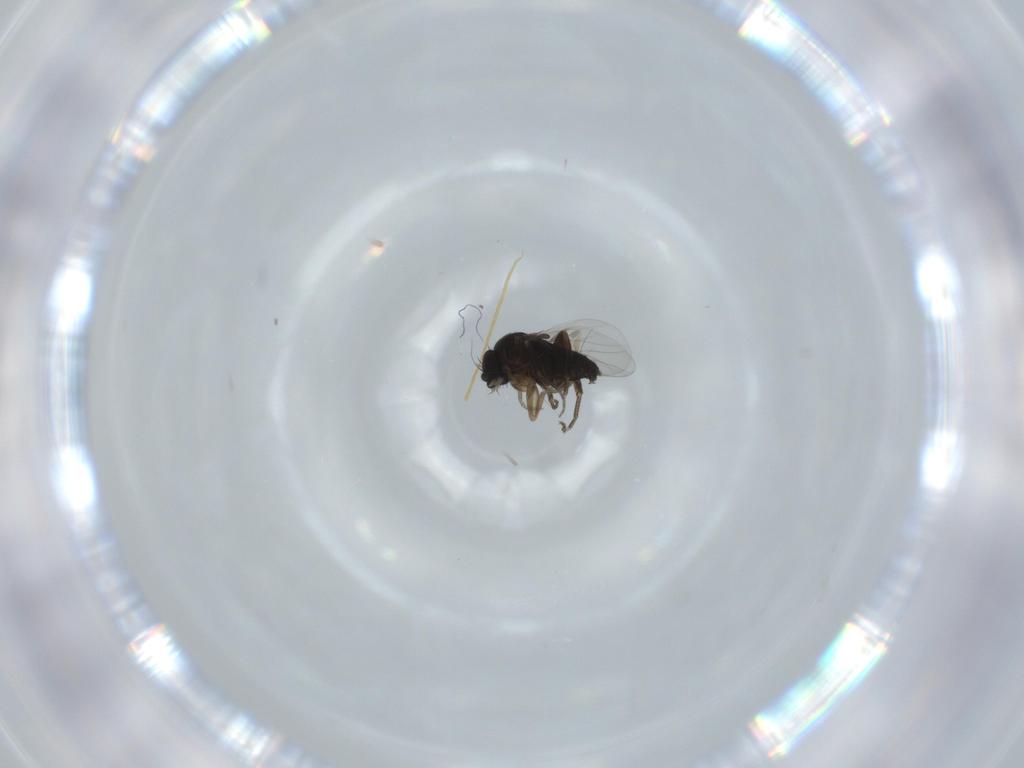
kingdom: Animalia
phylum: Arthropoda
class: Insecta
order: Diptera
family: Phoridae
